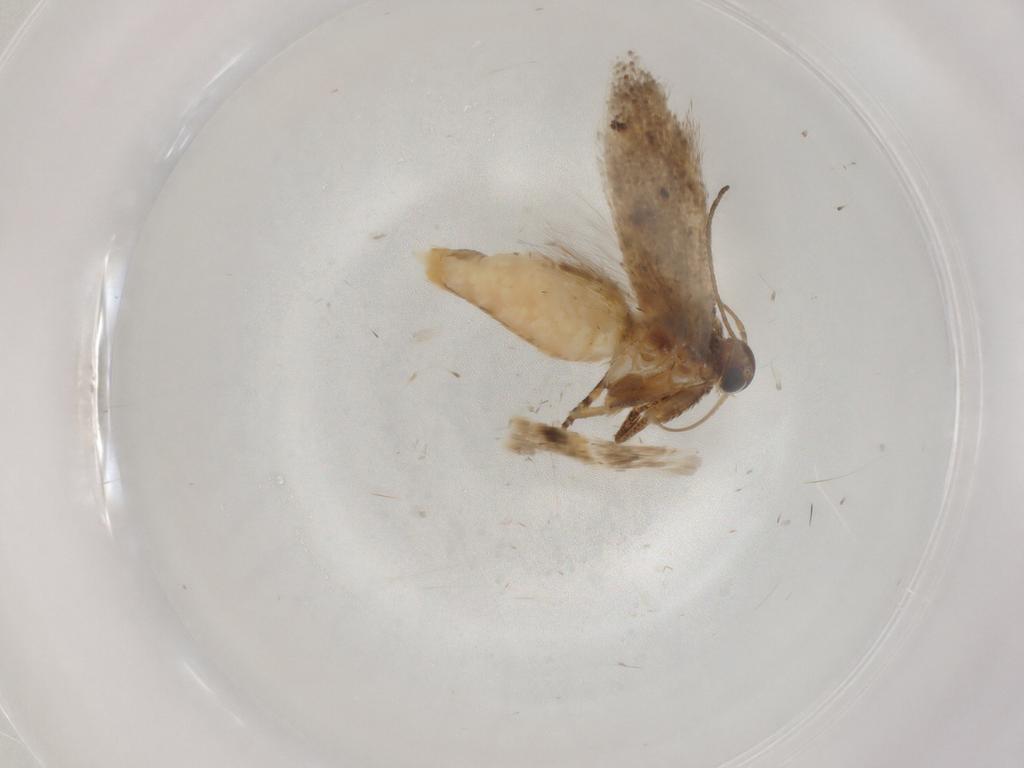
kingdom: Animalia
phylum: Arthropoda
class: Insecta
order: Lepidoptera
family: Gelechiidae
